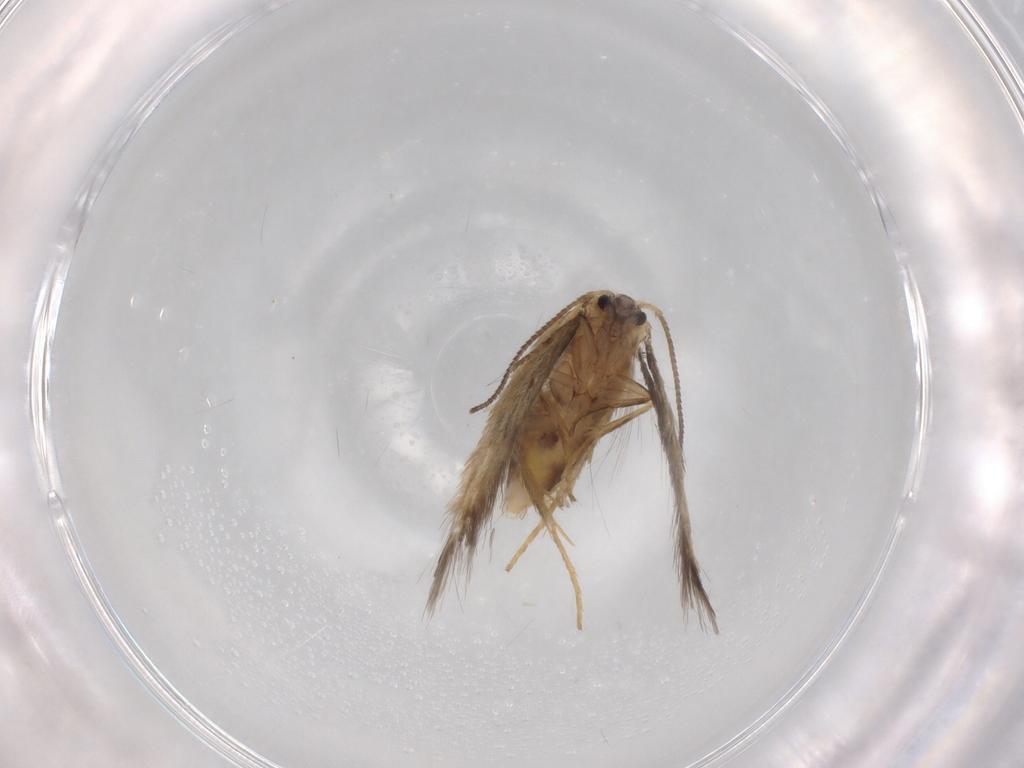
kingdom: Animalia
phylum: Arthropoda
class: Insecta
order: Lepidoptera
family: Nepticulidae
